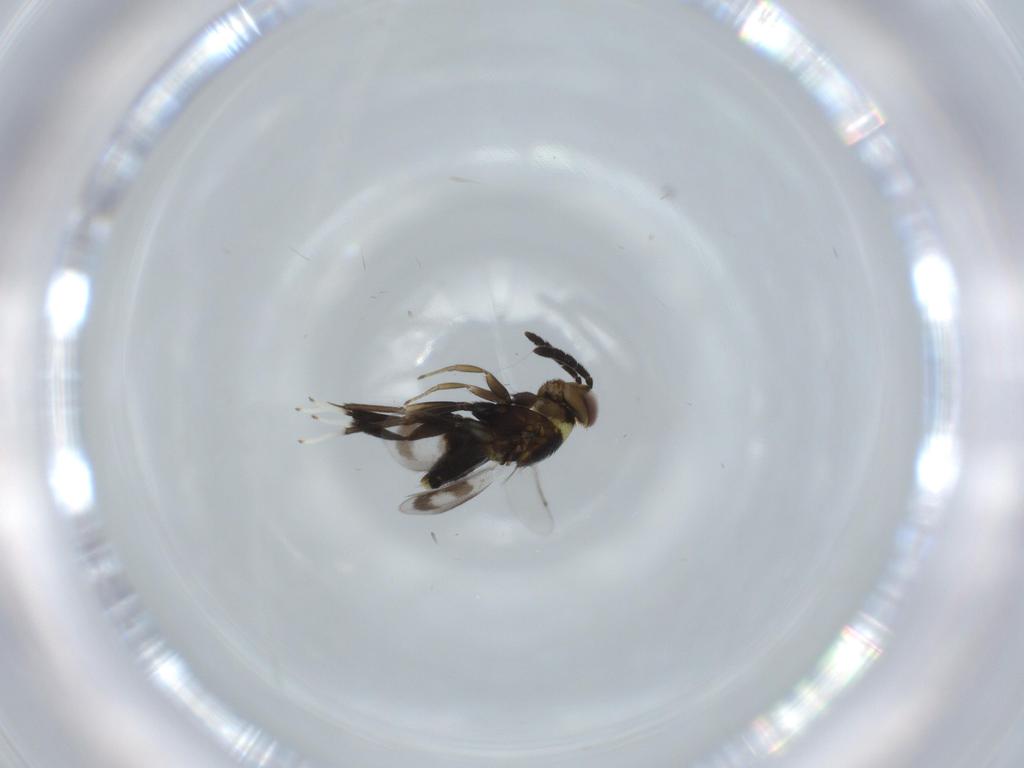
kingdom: Animalia
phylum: Arthropoda
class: Insecta
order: Hymenoptera
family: Aphelinidae
